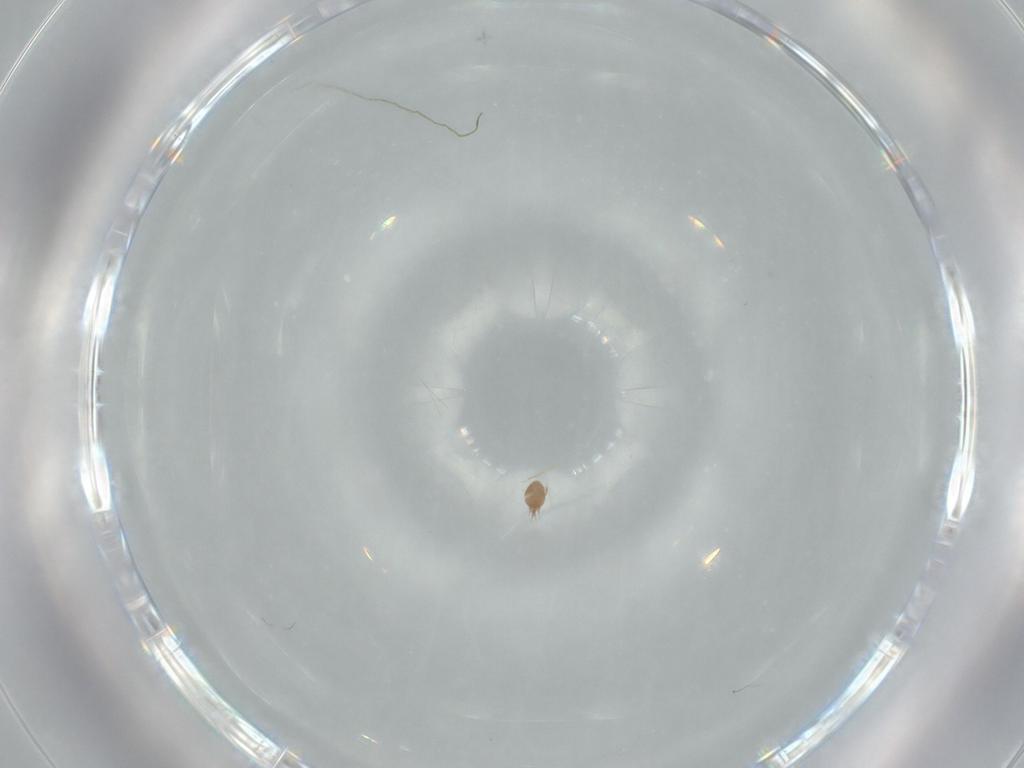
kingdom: Animalia
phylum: Arthropoda
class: Arachnida
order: Sarcoptiformes
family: Acaridae
